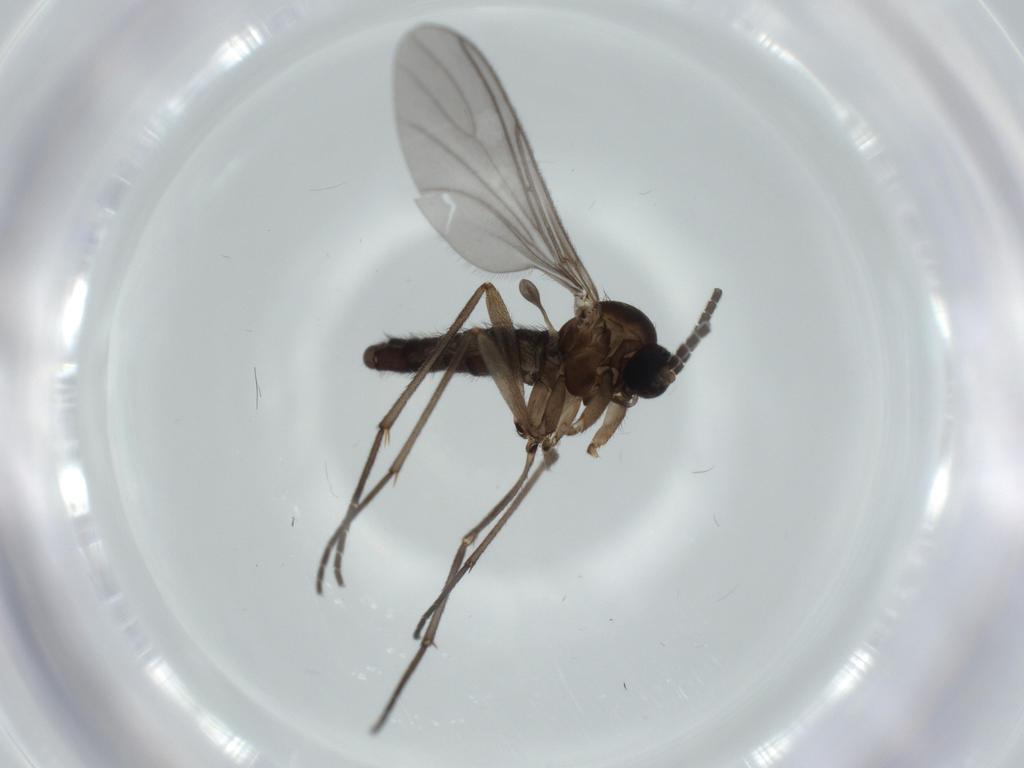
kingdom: Animalia
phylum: Arthropoda
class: Insecta
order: Diptera
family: Sciaridae
